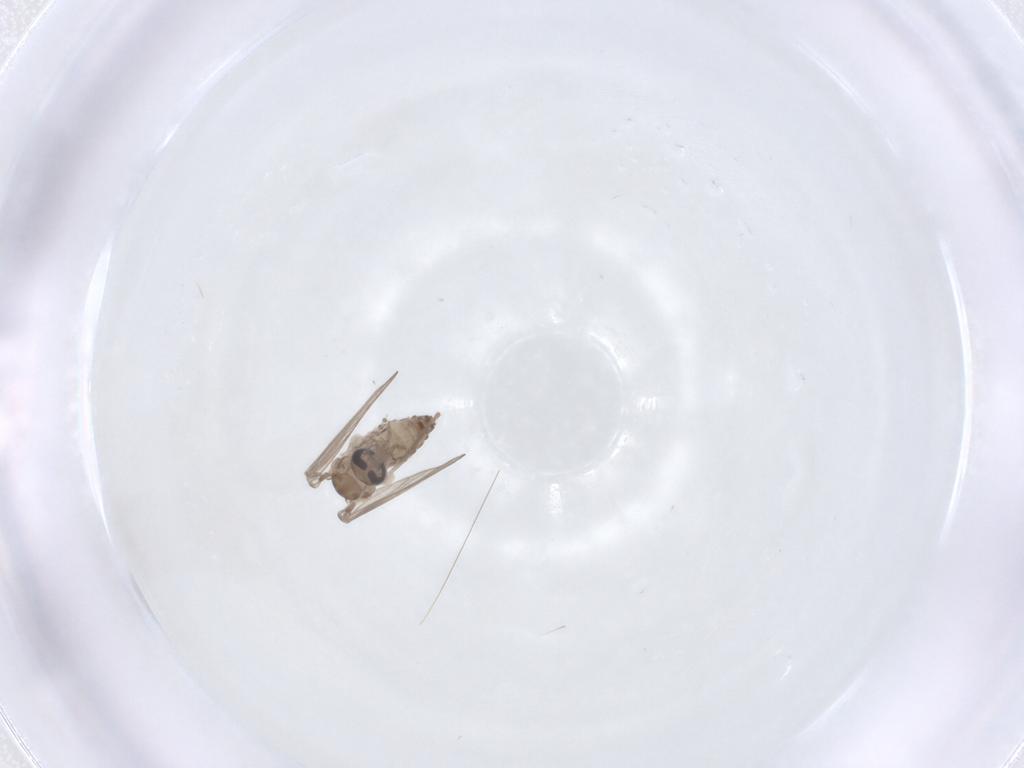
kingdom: Animalia
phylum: Arthropoda
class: Insecta
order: Diptera
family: Psychodidae
